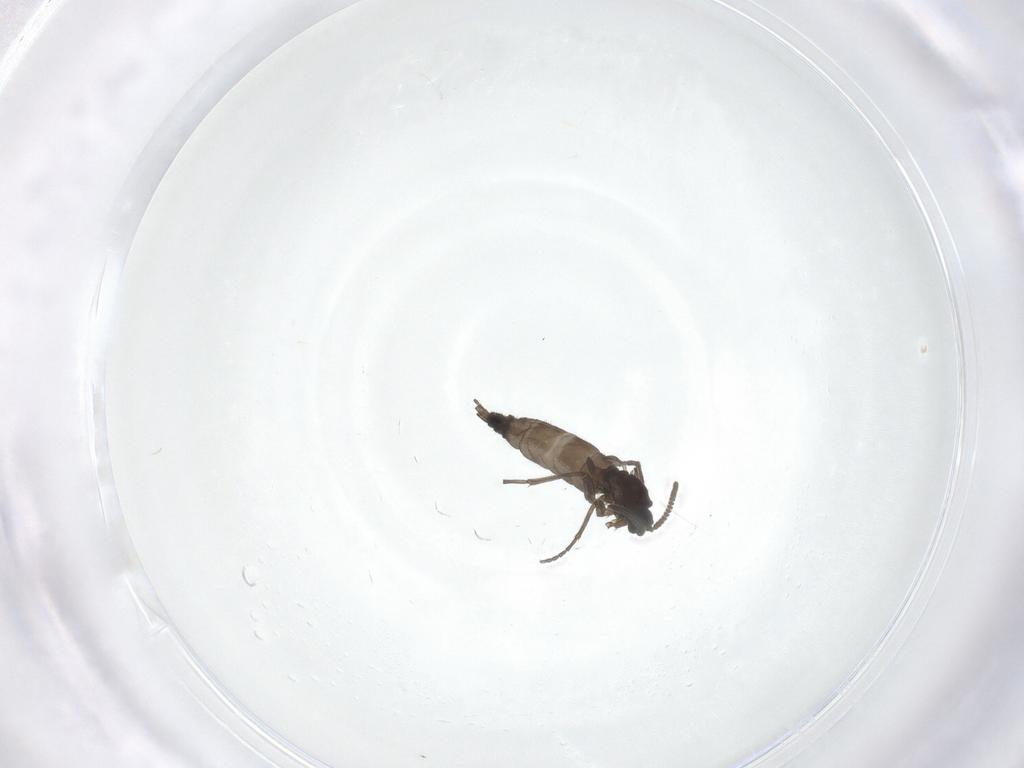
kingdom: Animalia
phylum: Arthropoda
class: Insecta
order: Diptera
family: Sciaridae
